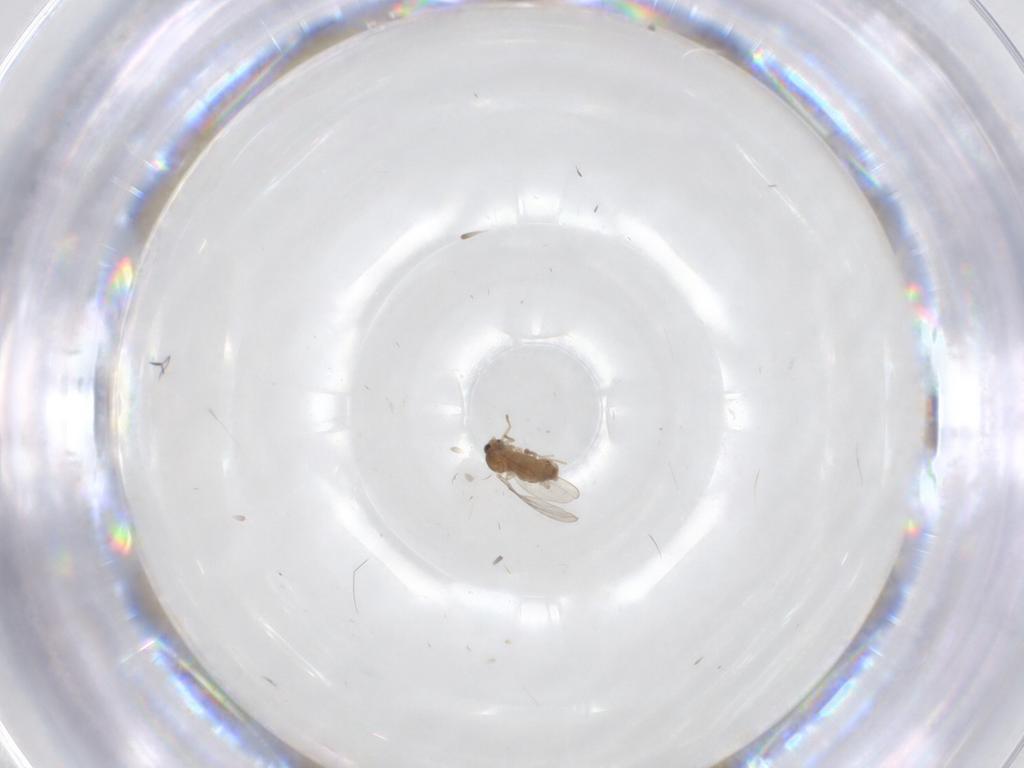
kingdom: Animalia
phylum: Arthropoda
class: Insecta
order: Diptera
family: Cecidomyiidae
